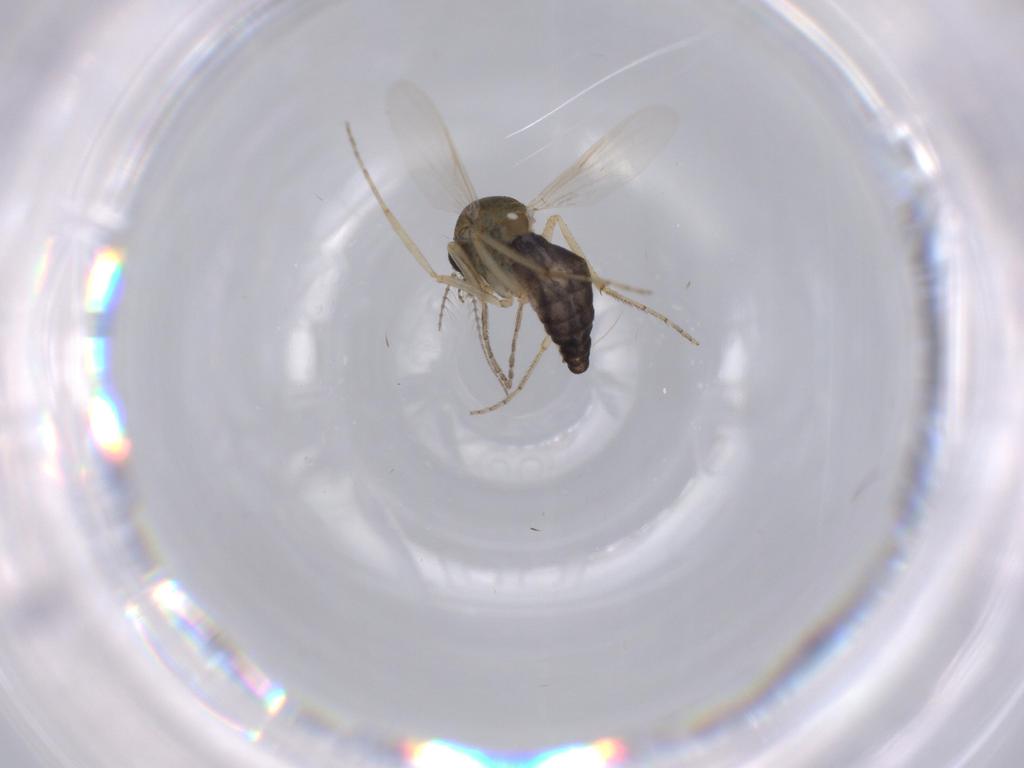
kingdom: Animalia
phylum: Arthropoda
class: Insecta
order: Diptera
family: Ceratopogonidae
